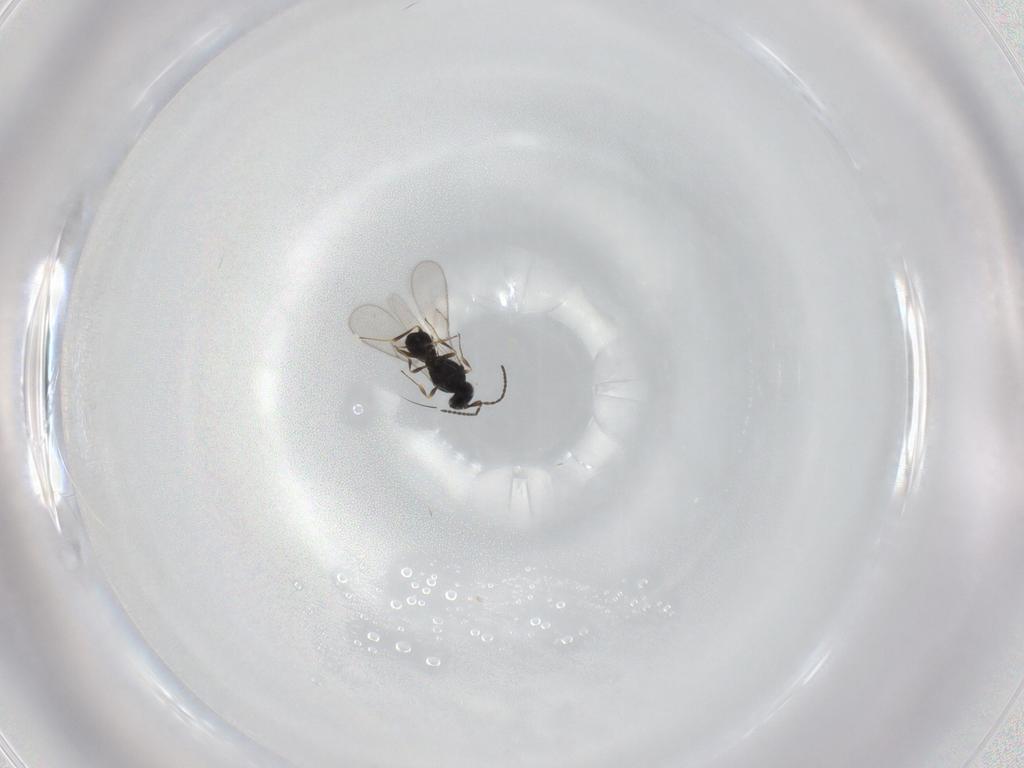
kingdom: Animalia
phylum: Arthropoda
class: Insecta
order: Hymenoptera
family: Scelionidae
